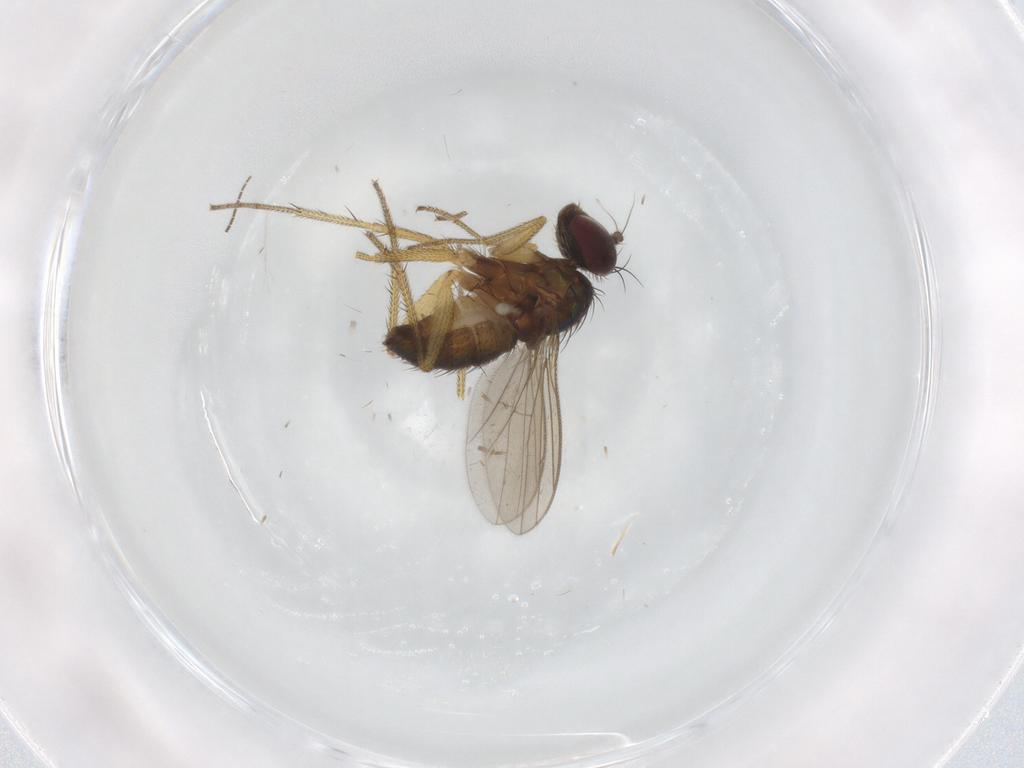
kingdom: Animalia
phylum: Arthropoda
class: Insecta
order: Diptera
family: Dolichopodidae
